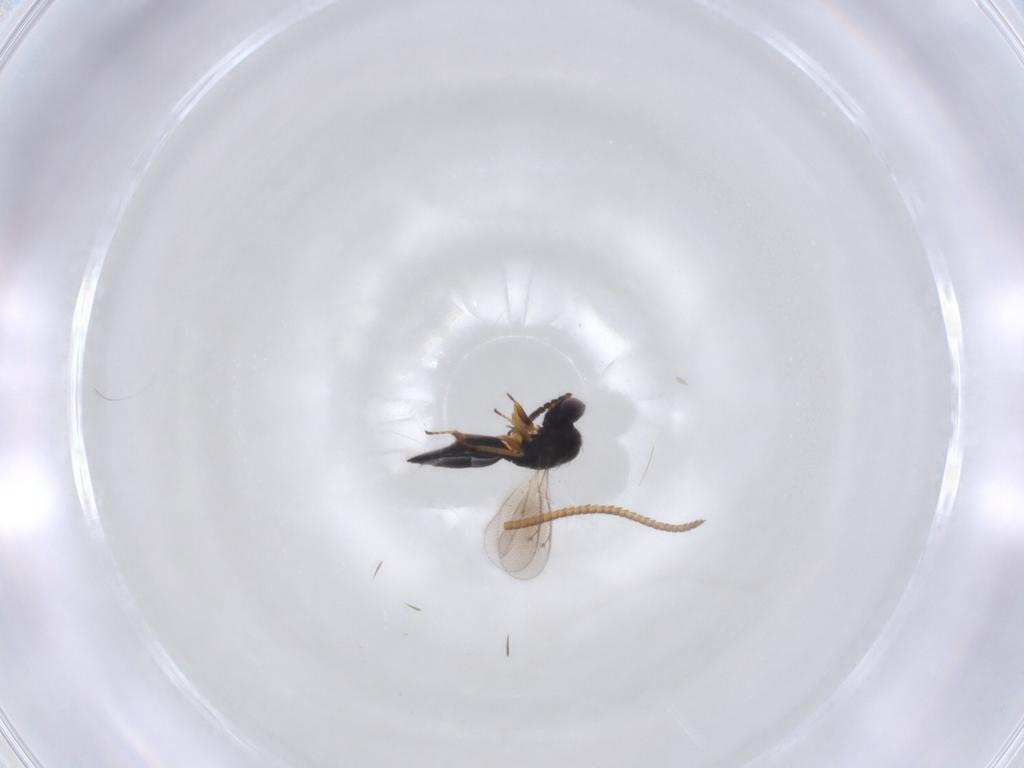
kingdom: Animalia
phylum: Arthropoda
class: Insecta
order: Hymenoptera
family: Eulophidae
